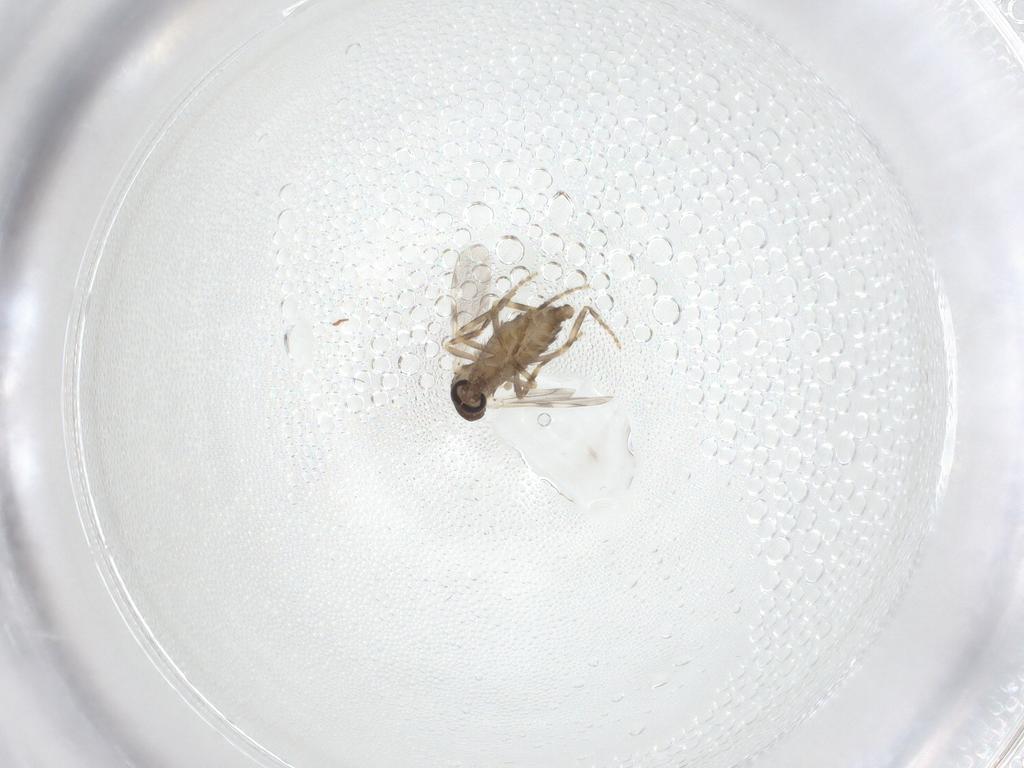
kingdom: Animalia
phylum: Arthropoda
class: Insecta
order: Diptera
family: Ceratopogonidae
